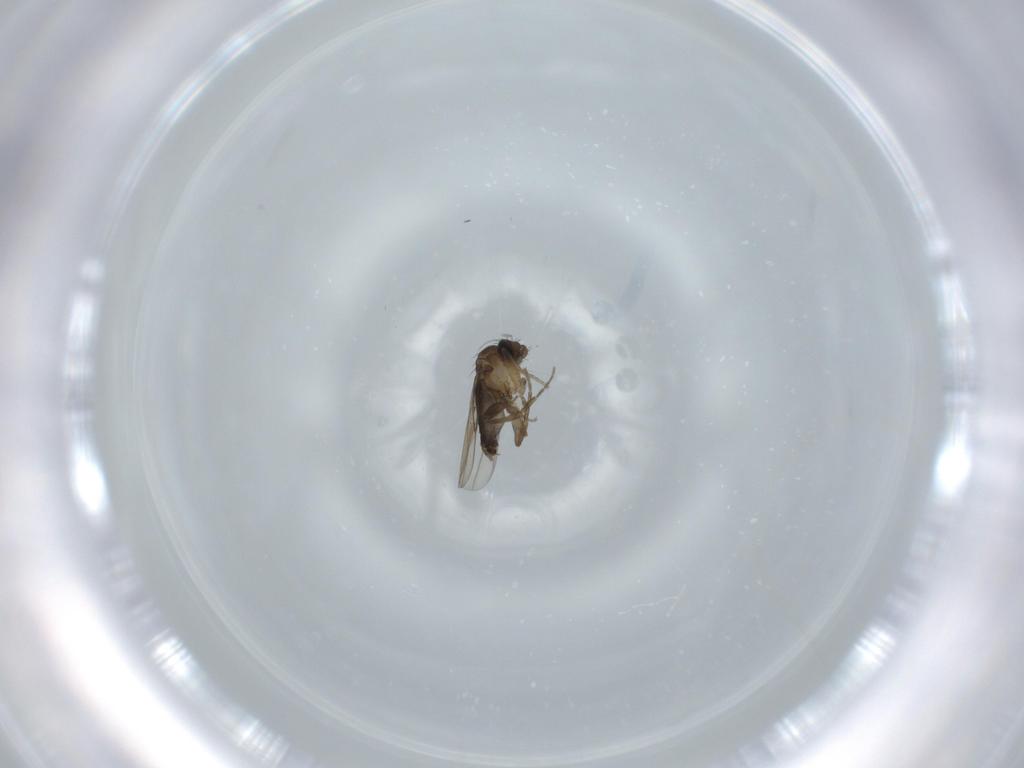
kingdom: Animalia
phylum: Arthropoda
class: Insecta
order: Diptera
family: Phoridae
